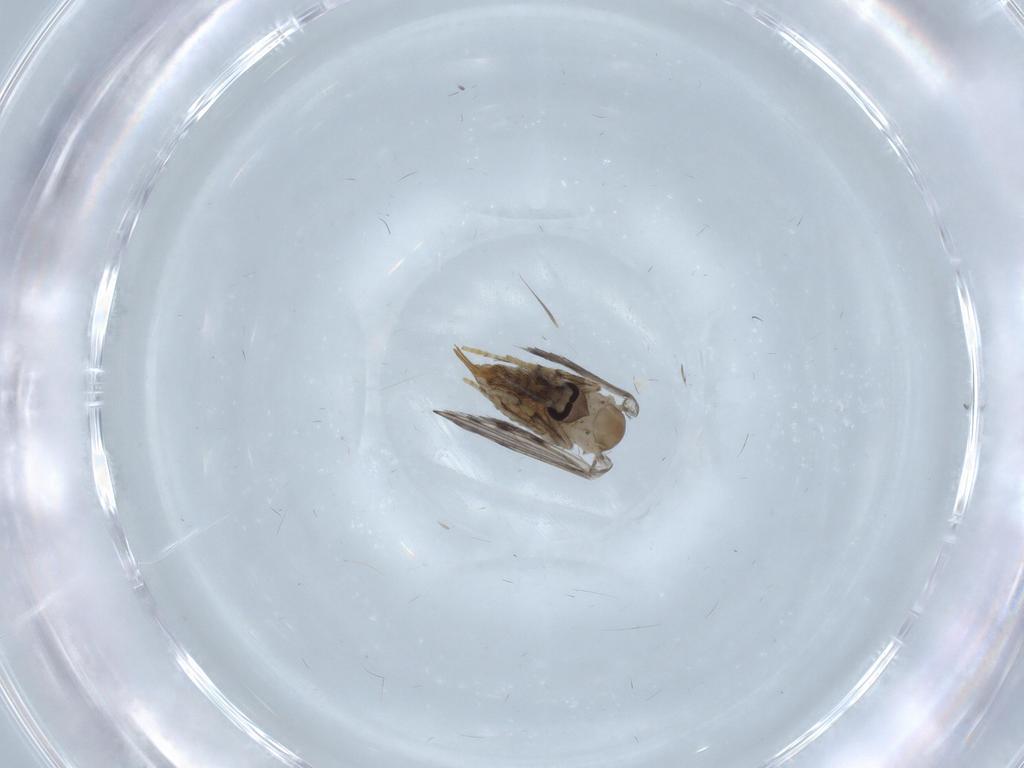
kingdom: Animalia
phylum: Arthropoda
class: Insecta
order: Diptera
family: Psychodidae
